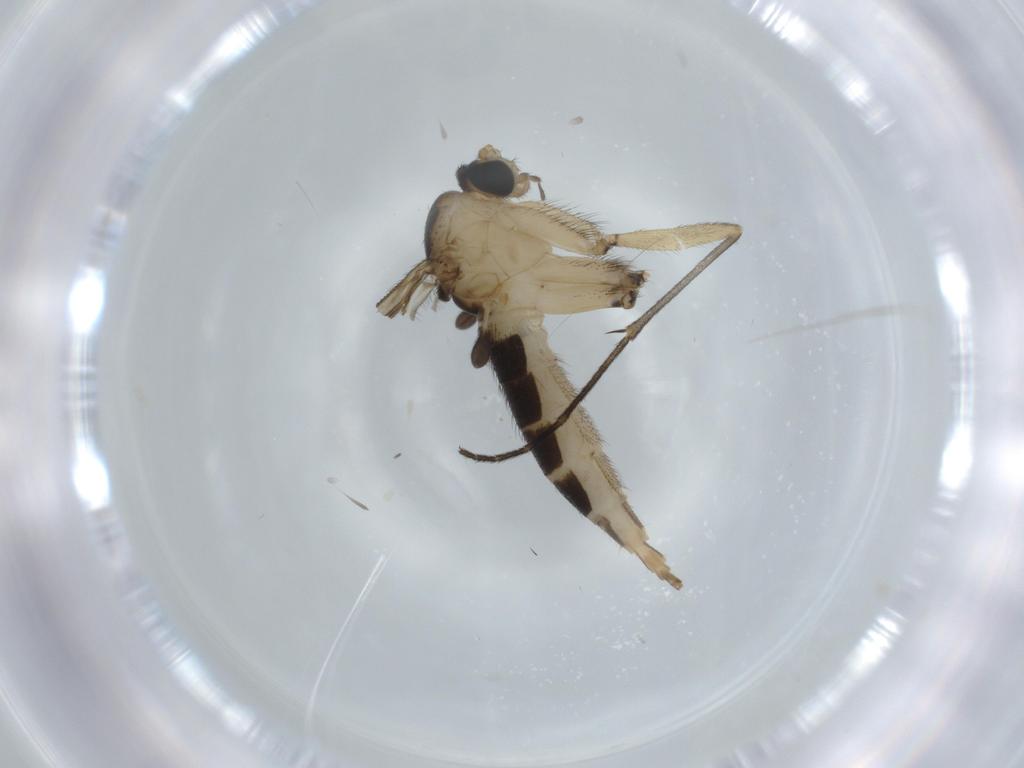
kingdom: Animalia
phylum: Arthropoda
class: Insecta
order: Diptera
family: Sciaridae
